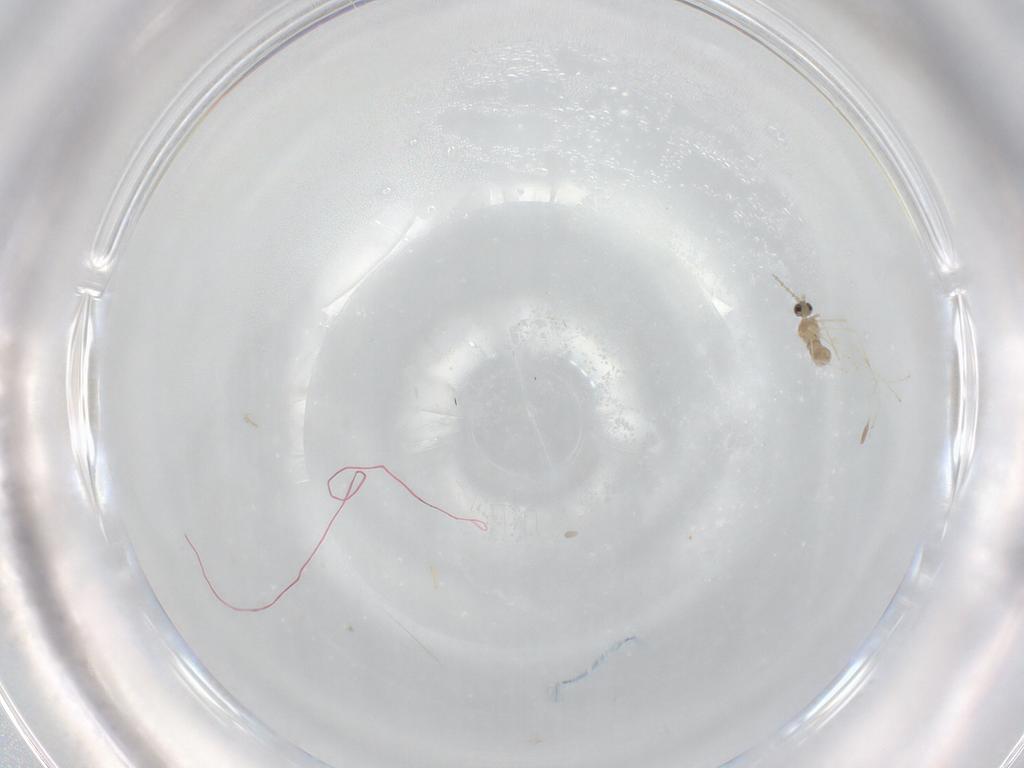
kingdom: Animalia
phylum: Arthropoda
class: Insecta
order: Diptera
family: Cecidomyiidae
